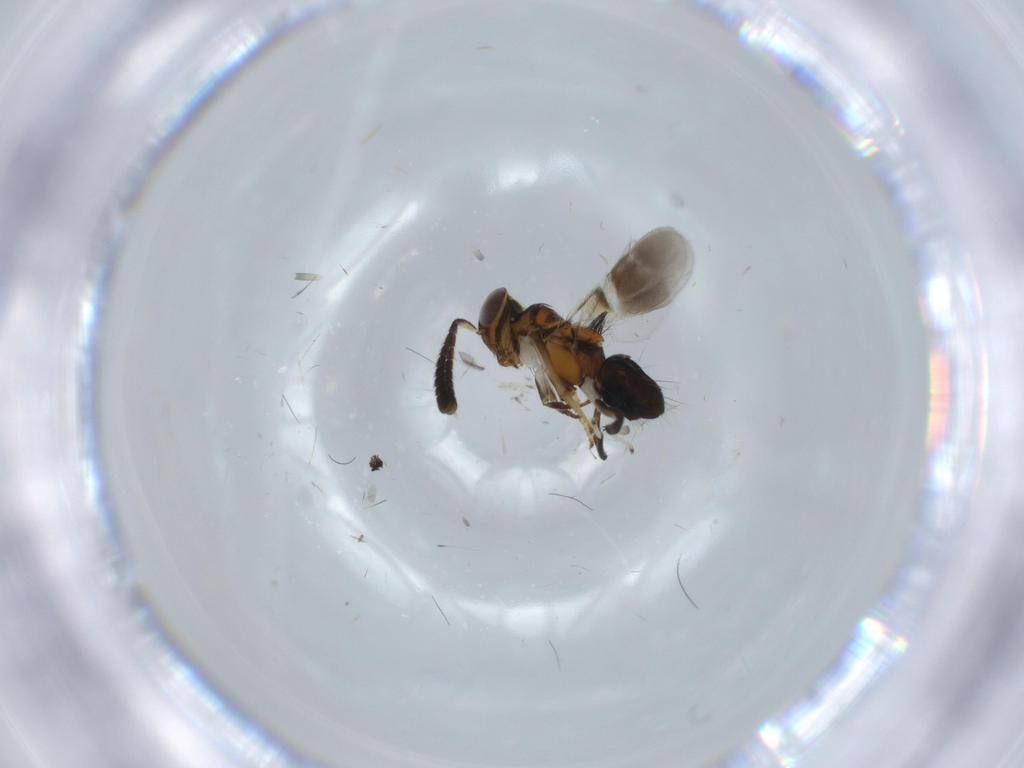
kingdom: Animalia
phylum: Arthropoda
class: Insecta
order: Hymenoptera
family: Encyrtidae
